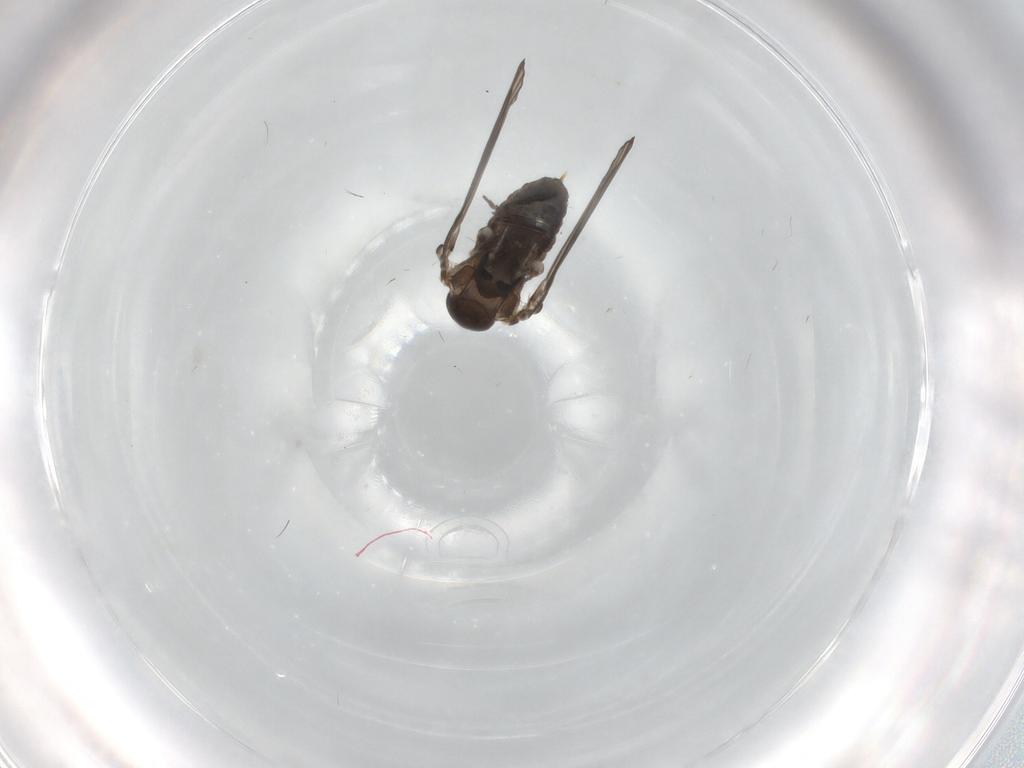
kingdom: Animalia
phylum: Arthropoda
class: Insecta
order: Diptera
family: Psychodidae
